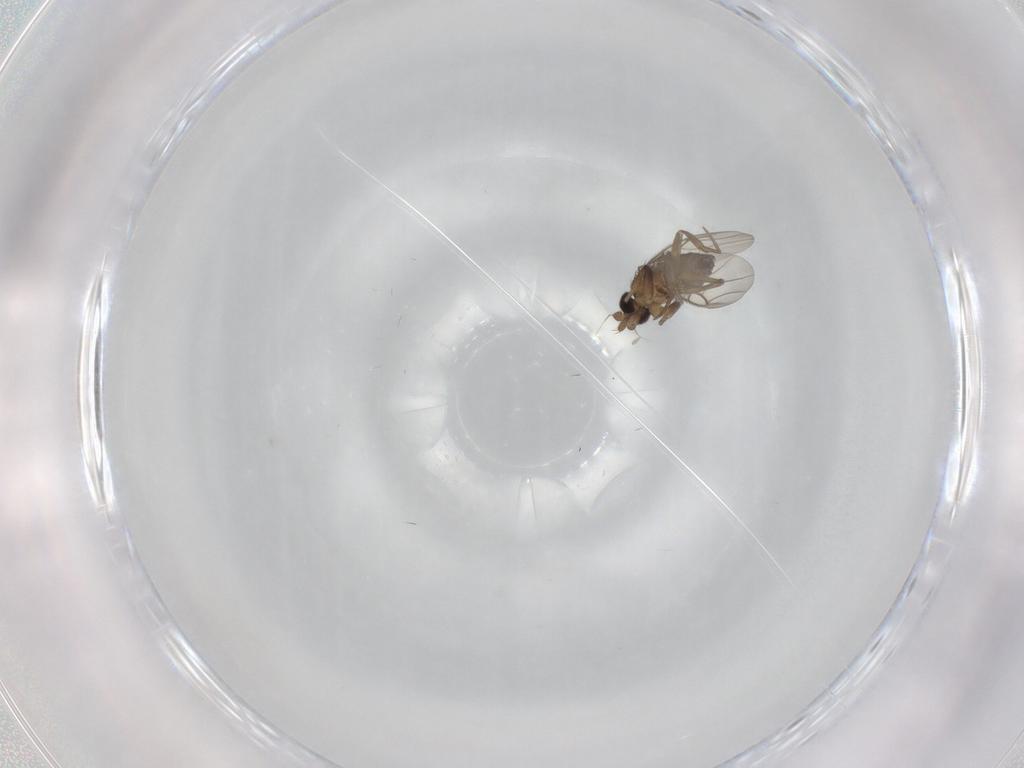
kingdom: Animalia
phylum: Arthropoda
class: Insecta
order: Diptera
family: Phoridae
